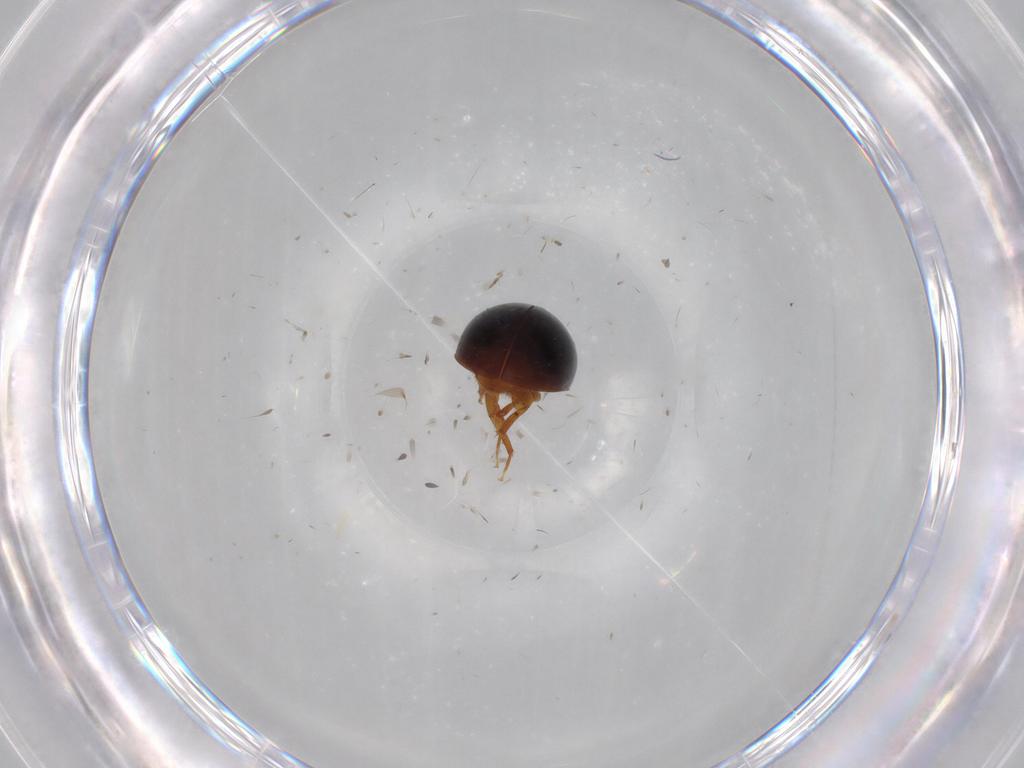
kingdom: Animalia
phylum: Arthropoda
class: Insecta
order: Coleoptera
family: Phalacridae
